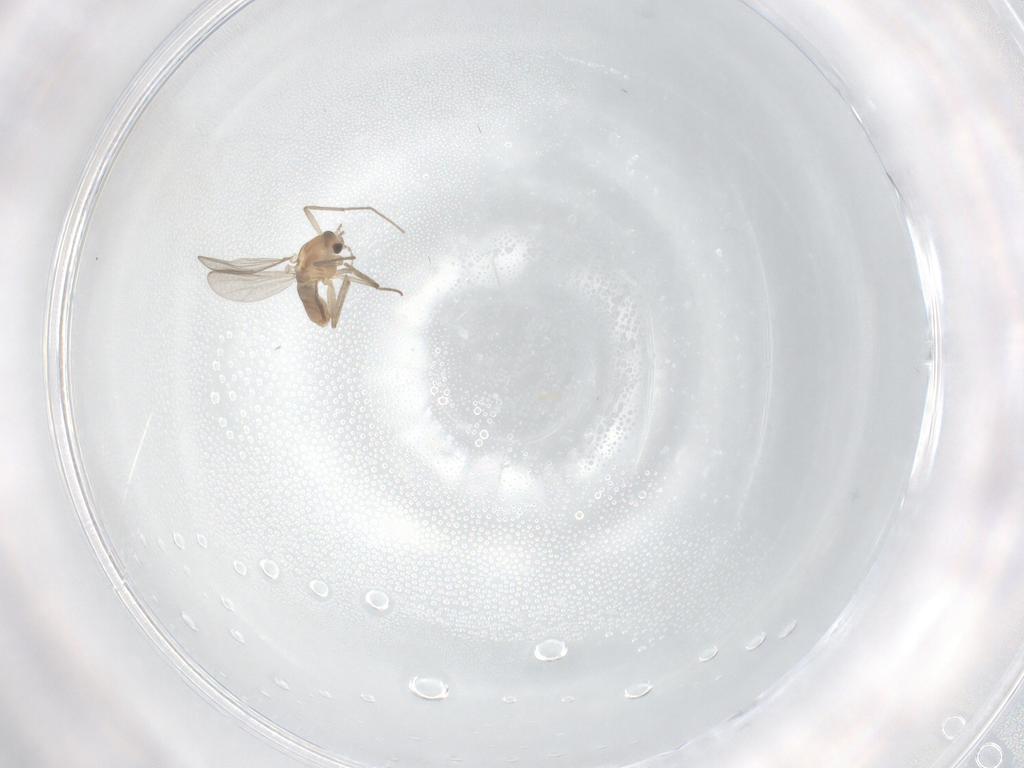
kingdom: Animalia
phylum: Arthropoda
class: Insecta
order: Diptera
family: Chironomidae
